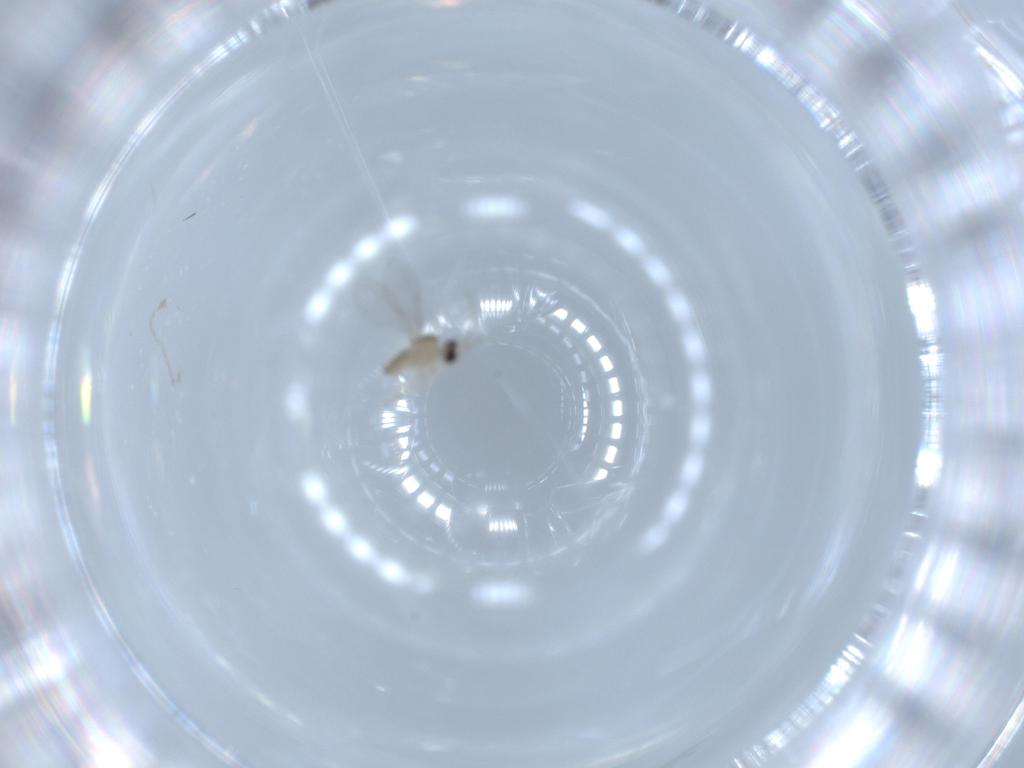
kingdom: Animalia
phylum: Arthropoda
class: Insecta
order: Diptera
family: Cecidomyiidae
